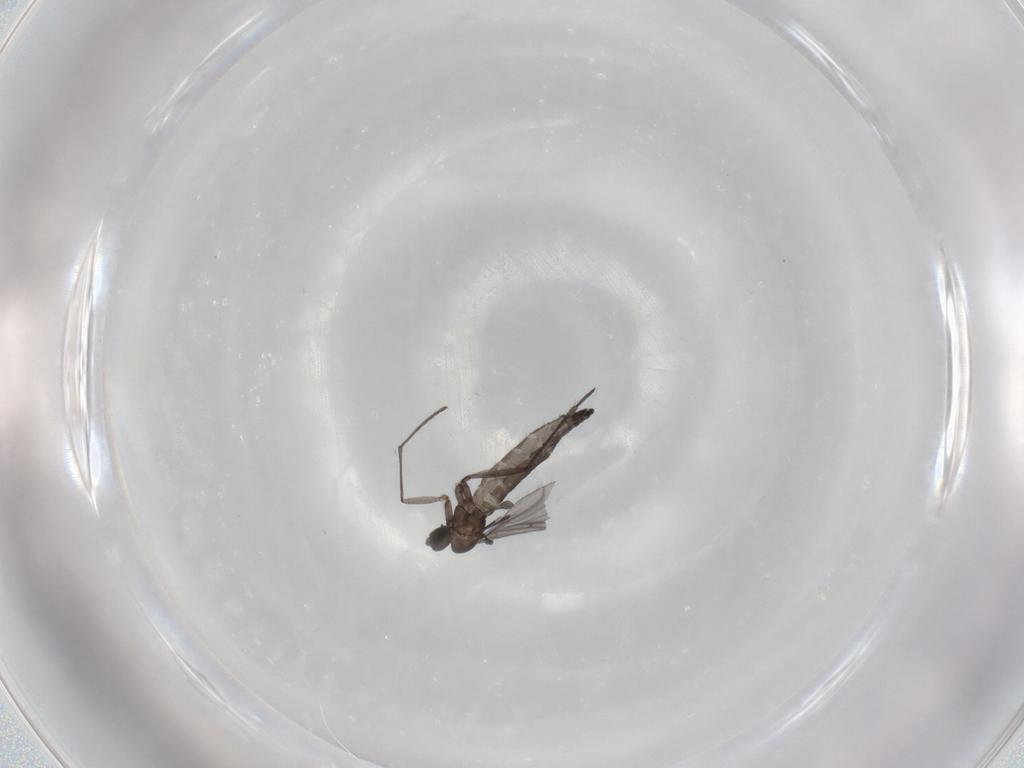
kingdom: Animalia
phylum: Arthropoda
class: Insecta
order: Diptera
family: Sciaridae
